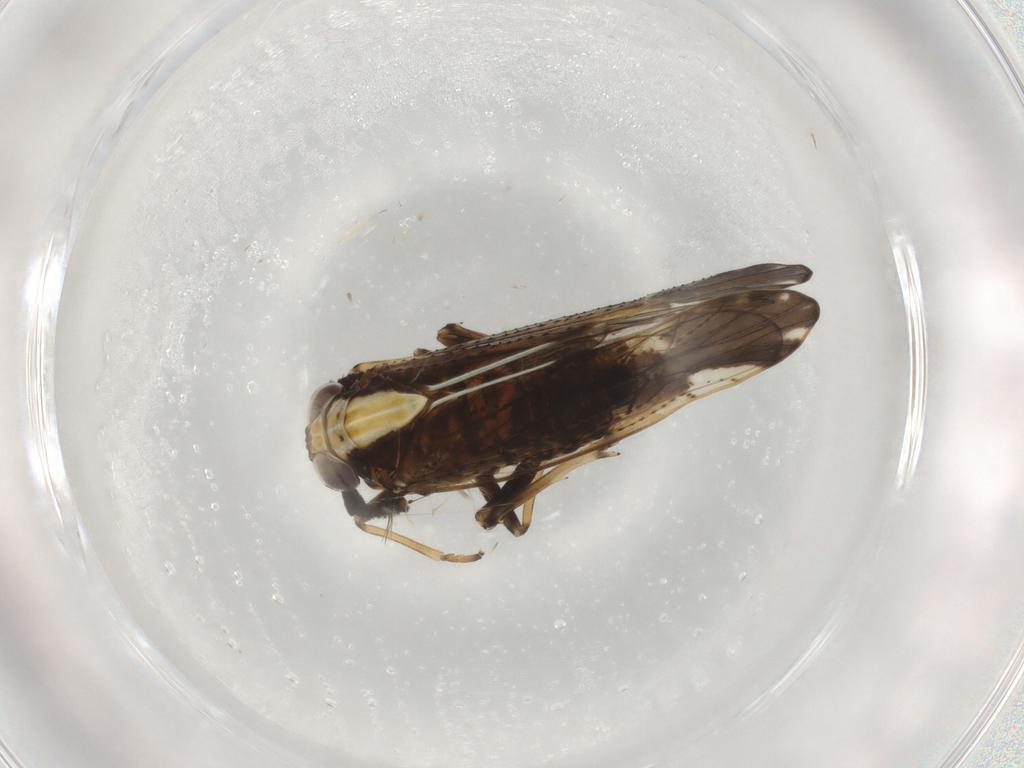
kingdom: Animalia
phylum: Arthropoda
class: Insecta
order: Hemiptera
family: Delphacidae
